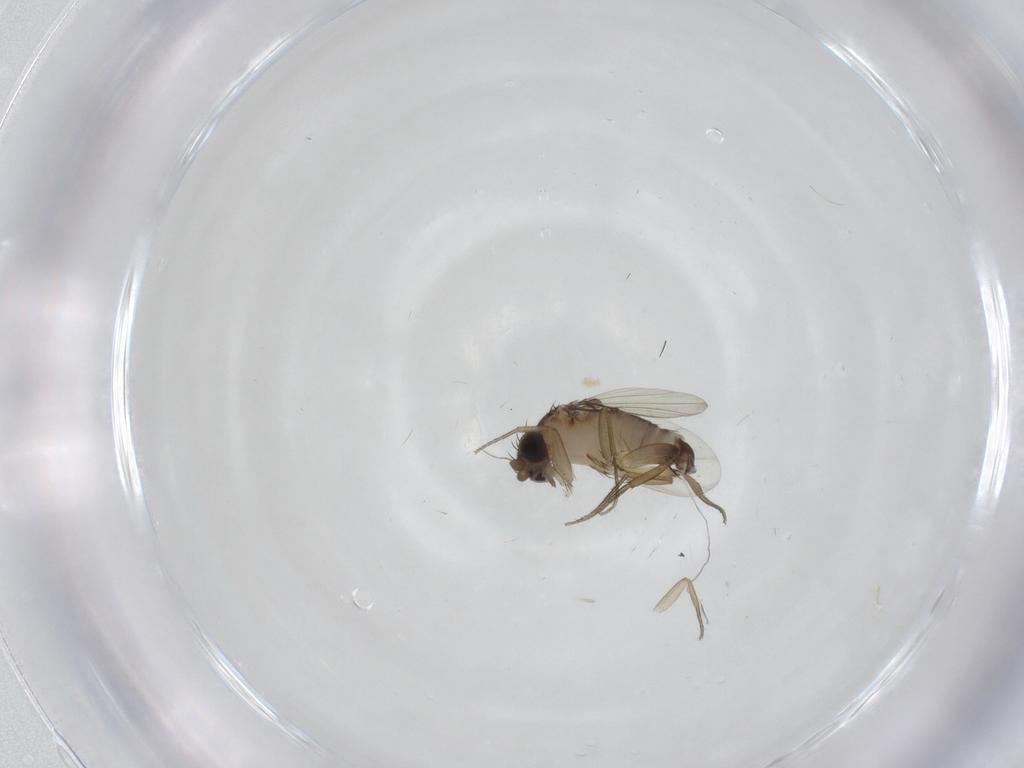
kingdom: Animalia
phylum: Arthropoda
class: Insecta
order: Diptera
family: Phoridae
